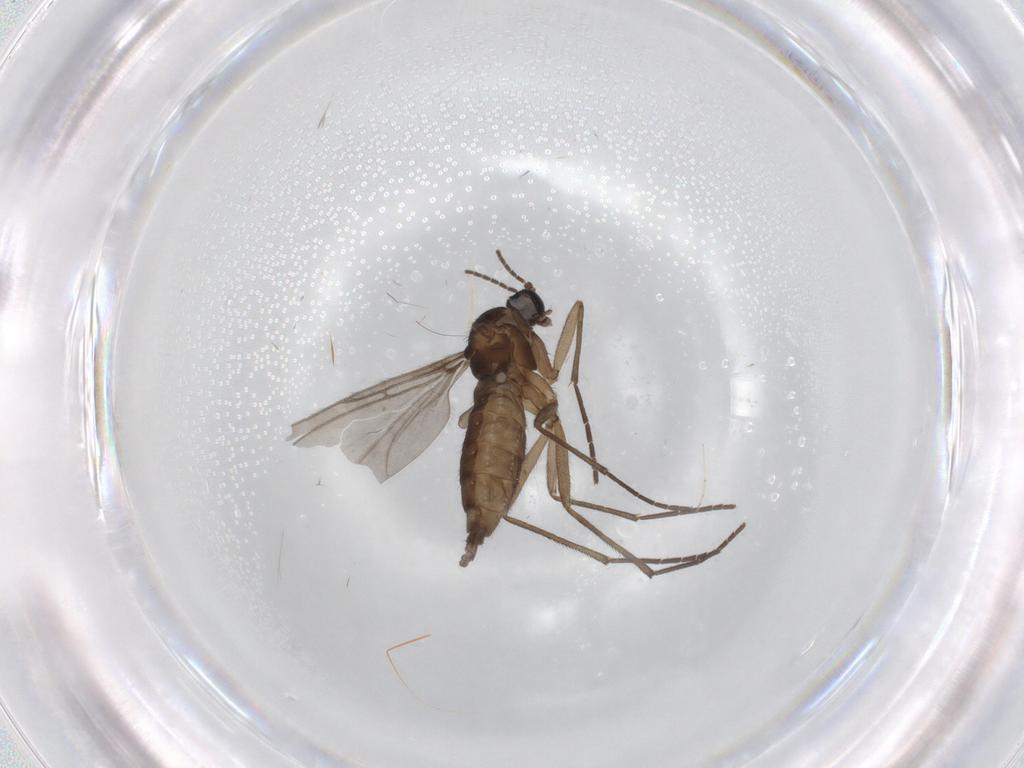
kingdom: Animalia
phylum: Arthropoda
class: Insecta
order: Diptera
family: Sciaridae
